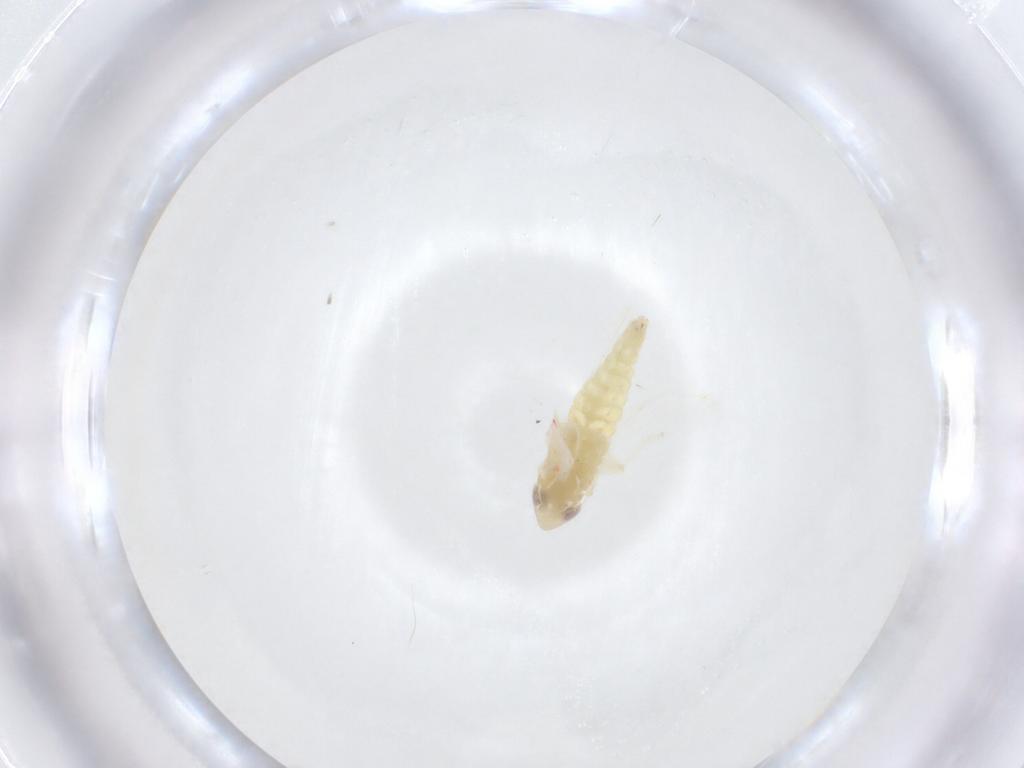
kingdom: Animalia
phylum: Arthropoda
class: Insecta
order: Hemiptera
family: Cicadellidae
